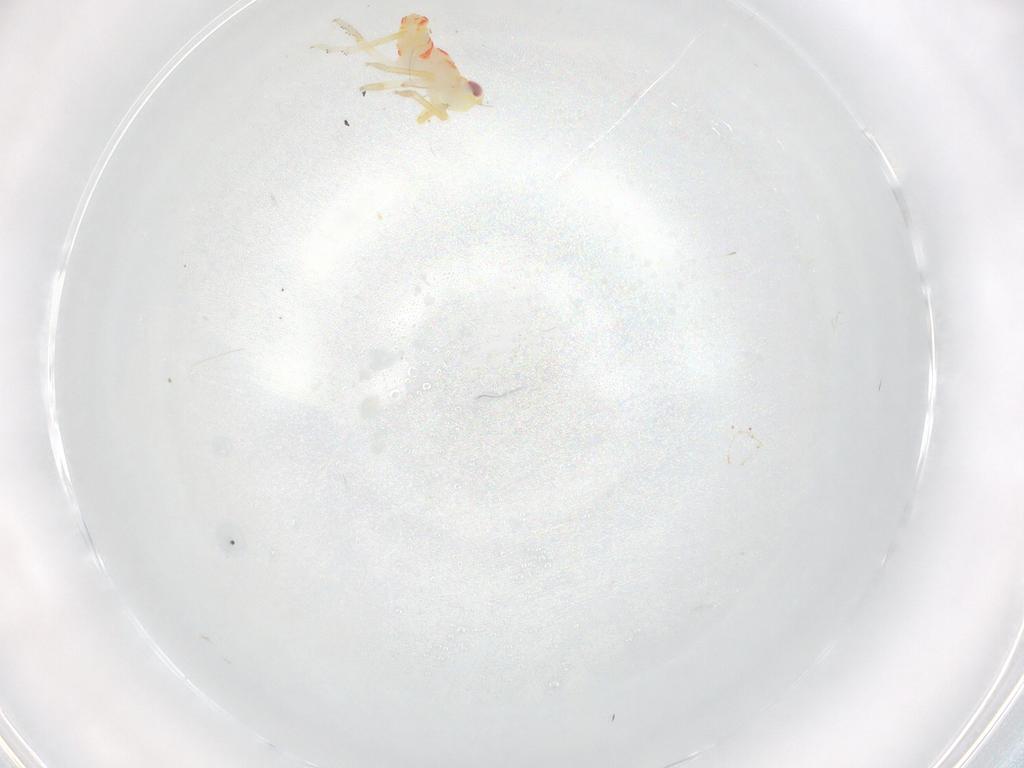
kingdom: Animalia
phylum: Arthropoda
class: Insecta
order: Hemiptera
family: Tropiduchidae
